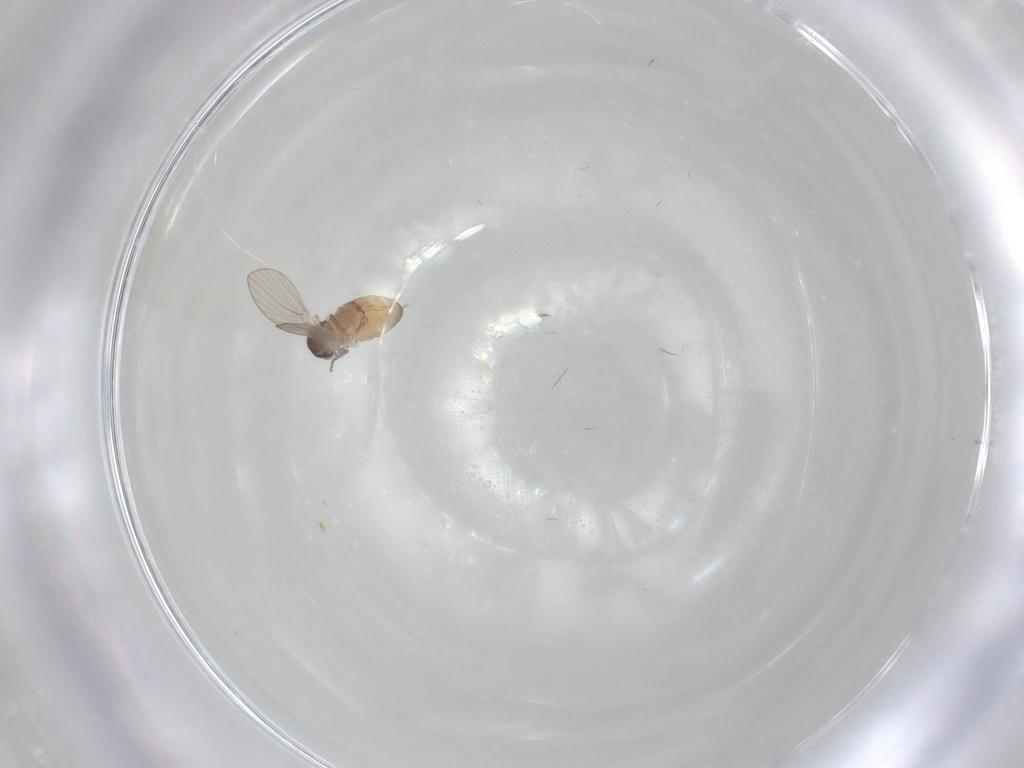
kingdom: Animalia
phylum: Arthropoda
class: Insecta
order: Diptera
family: Psychodidae
